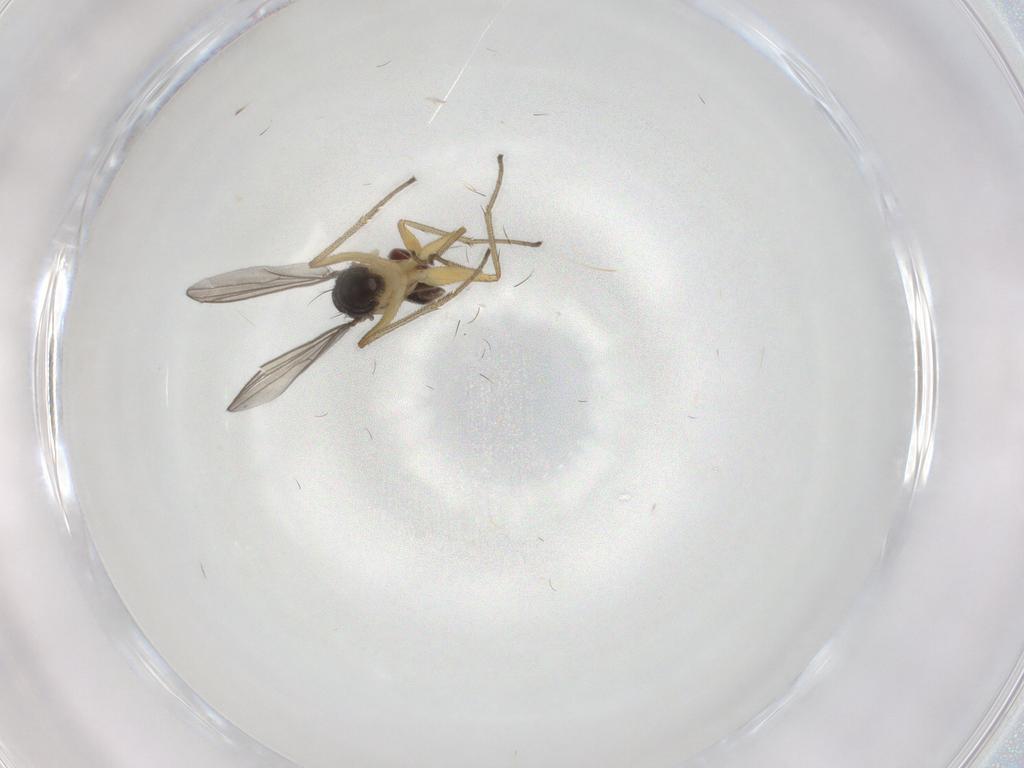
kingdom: Animalia
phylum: Arthropoda
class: Insecta
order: Diptera
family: Dolichopodidae
